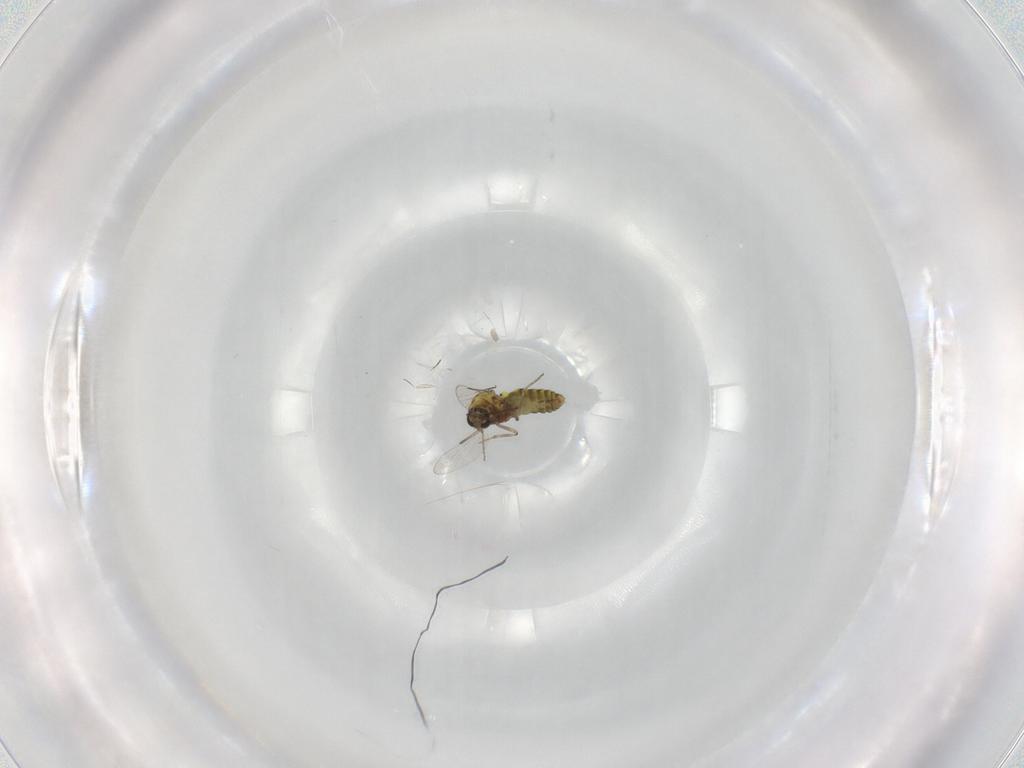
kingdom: Animalia
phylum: Arthropoda
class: Insecta
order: Diptera
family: Ceratopogonidae
